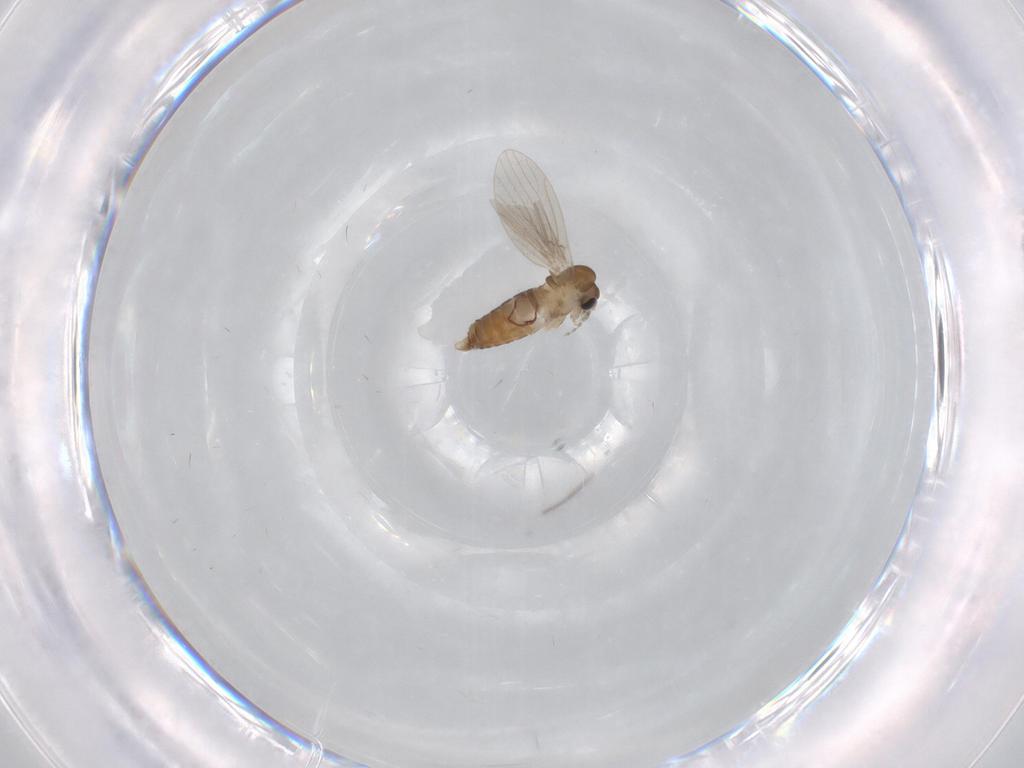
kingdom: Animalia
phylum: Arthropoda
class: Insecta
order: Diptera
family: Psychodidae
